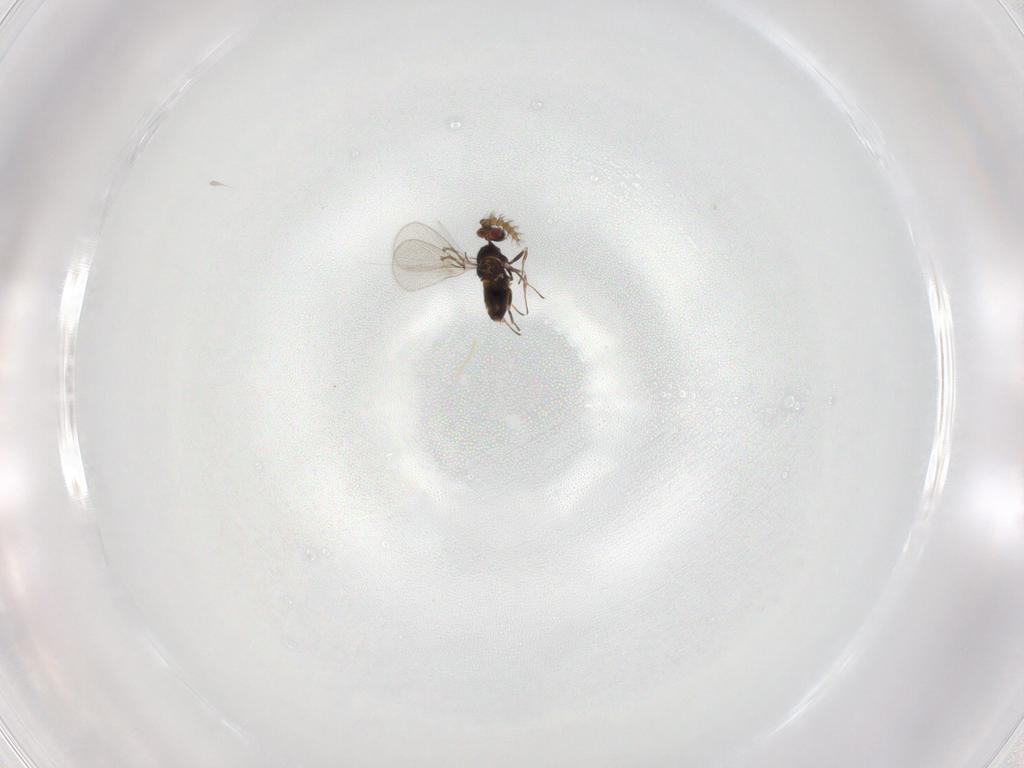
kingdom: Animalia
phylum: Arthropoda
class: Insecta
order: Hymenoptera
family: Trichogrammatidae
